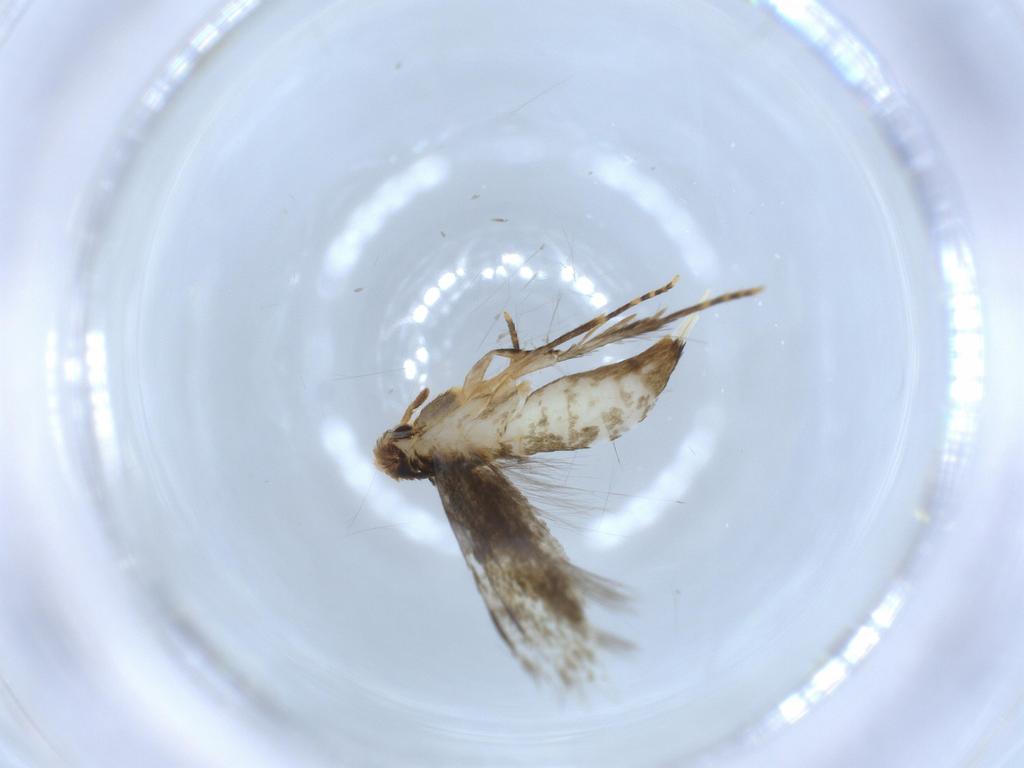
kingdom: Animalia
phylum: Arthropoda
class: Insecta
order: Lepidoptera
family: Tineidae
